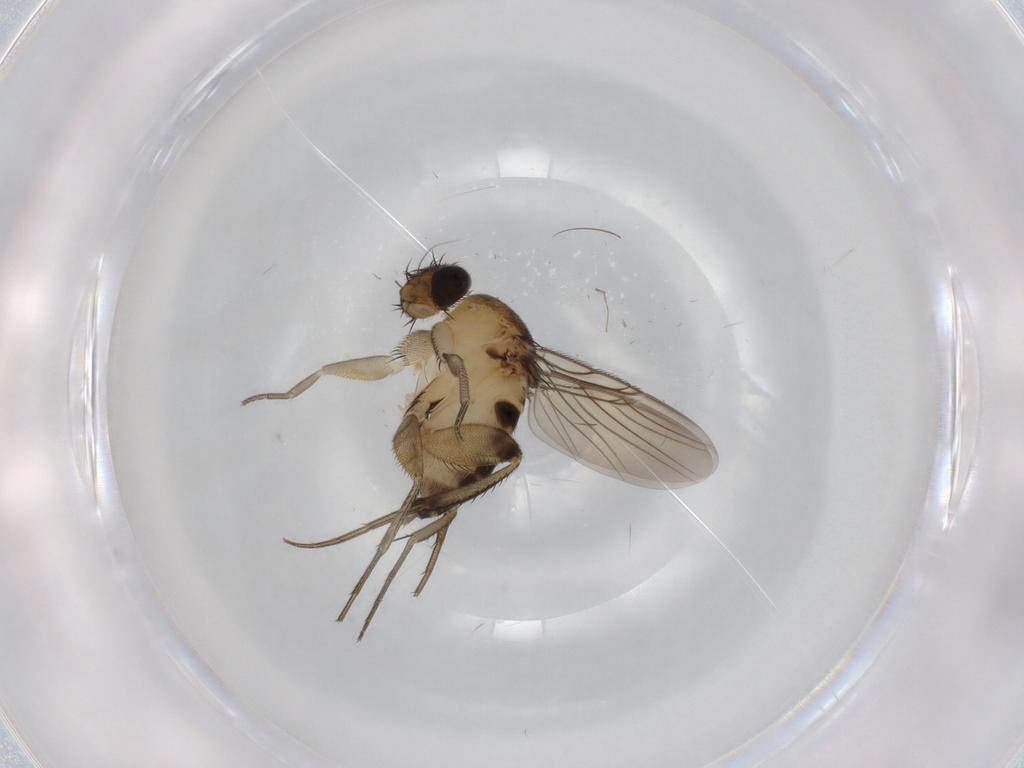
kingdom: Animalia
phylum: Arthropoda
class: Insecta
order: Diptera
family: Phoridae
